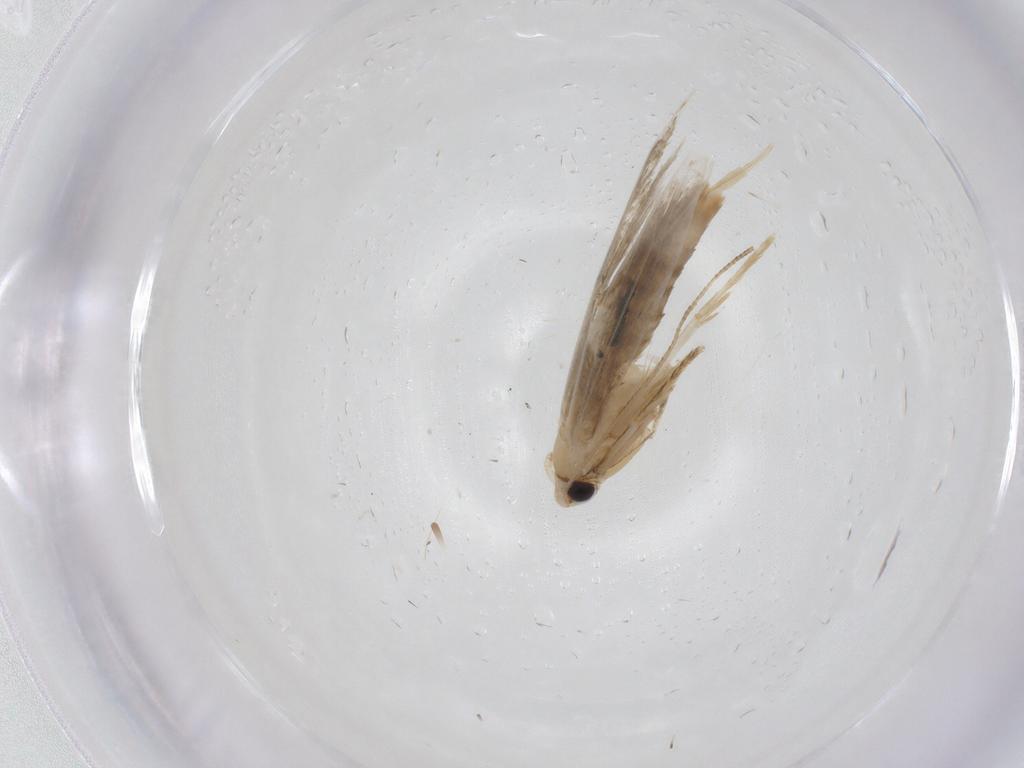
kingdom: Animalia
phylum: Arthropoda
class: Insecta
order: Lepidoptera
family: Tineidae
